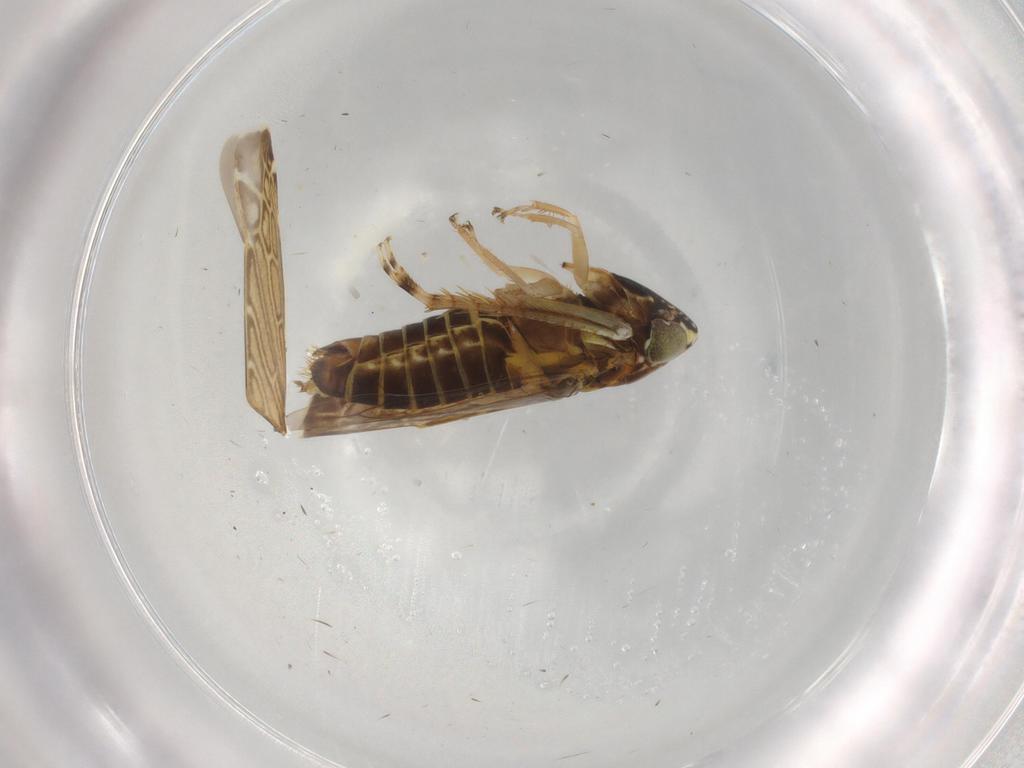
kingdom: Animalia
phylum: Arthropoda
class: Insecta
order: Hemiptera
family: Cicadellidae
